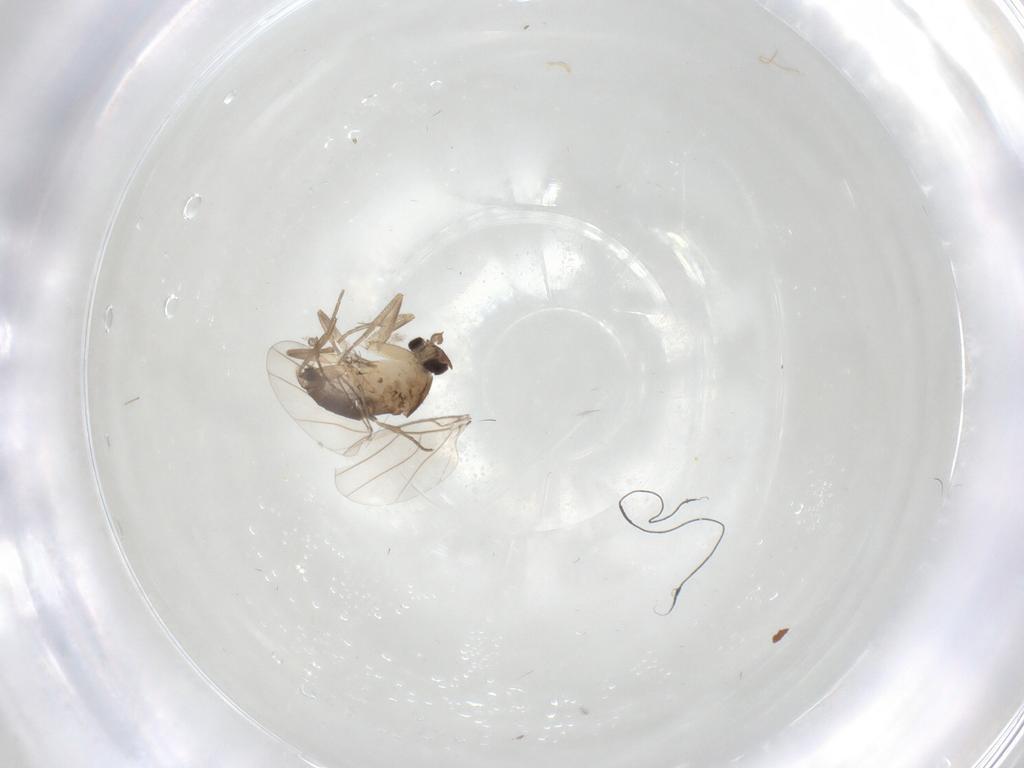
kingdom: Animalia
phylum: Arthropoda
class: Insecta
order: Diptera
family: Phoridae
